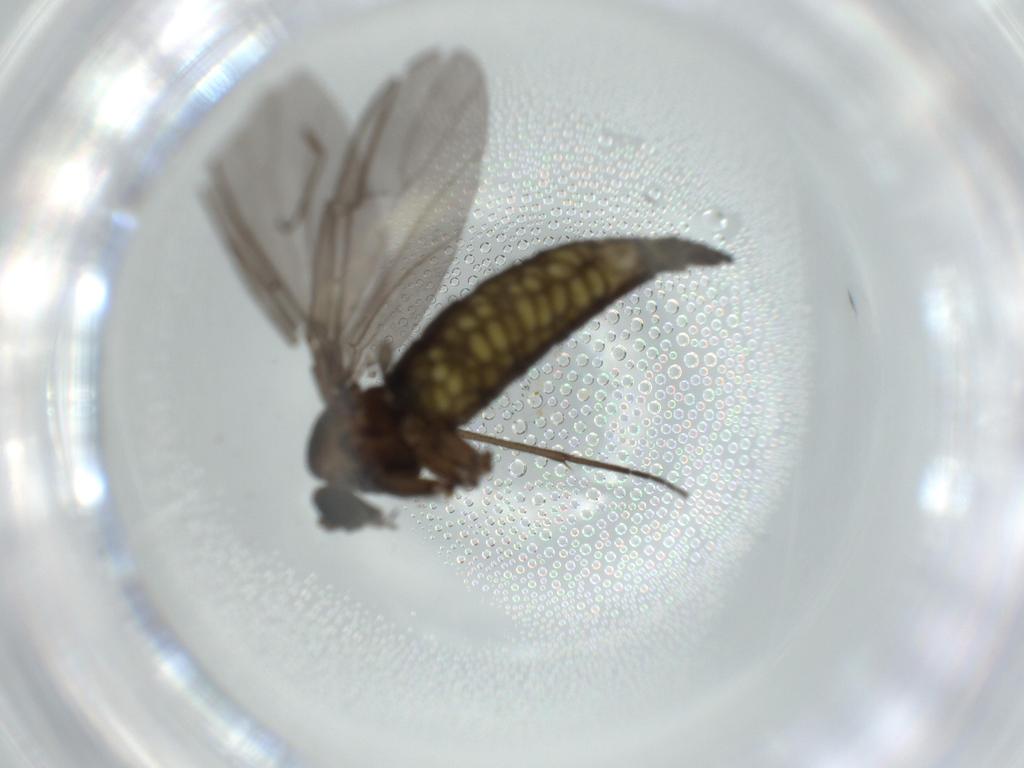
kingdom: Animalia
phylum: Arthropoda
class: Insecta
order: Diptera
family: Sciaridae
